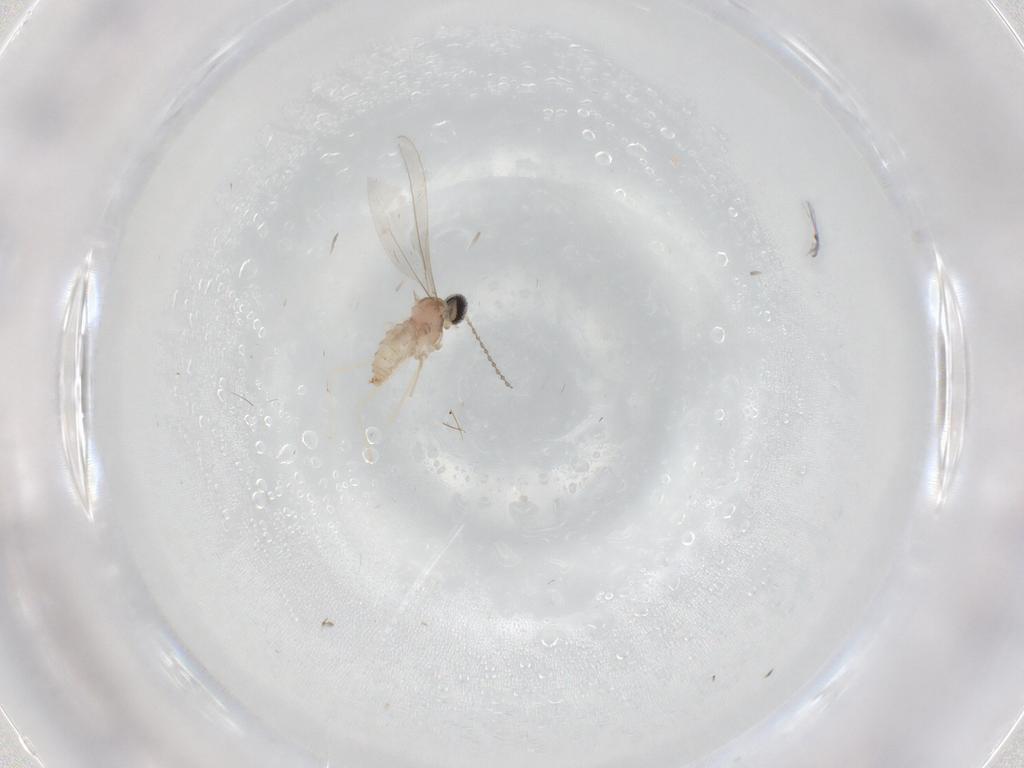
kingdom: Animalia
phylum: Arthropoda
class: Insecta
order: Diptera
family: Cecidomyiidae
